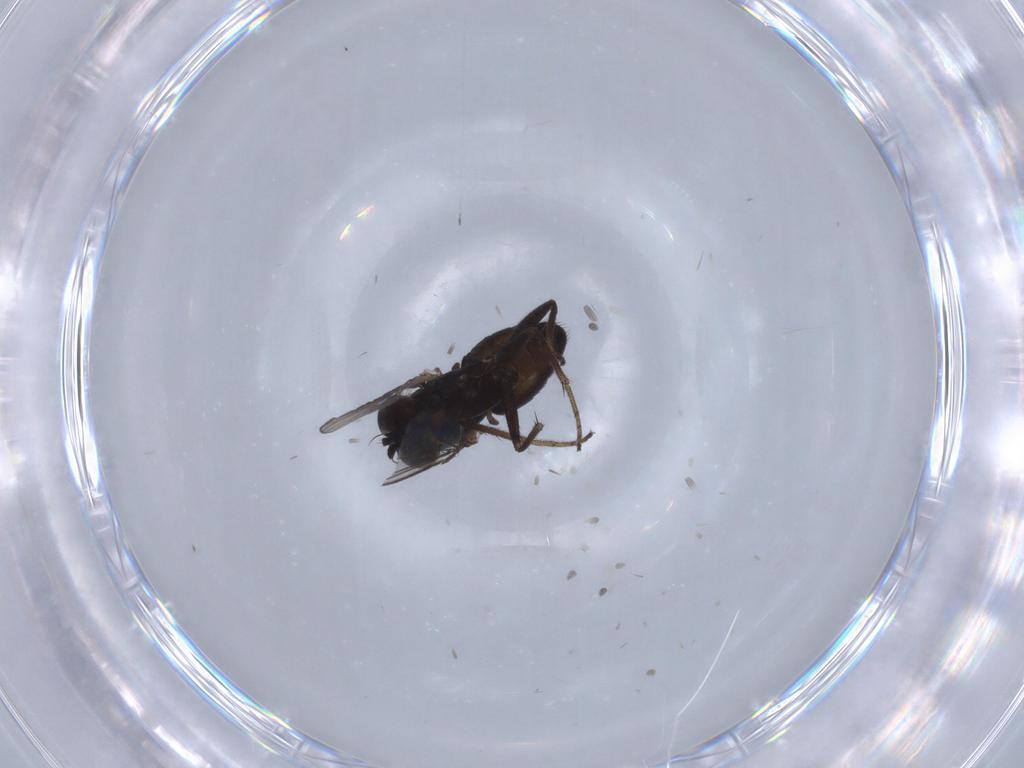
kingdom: Animalia
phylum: Arthropoda
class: Insecta
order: Diptera
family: Dolichopodidae
